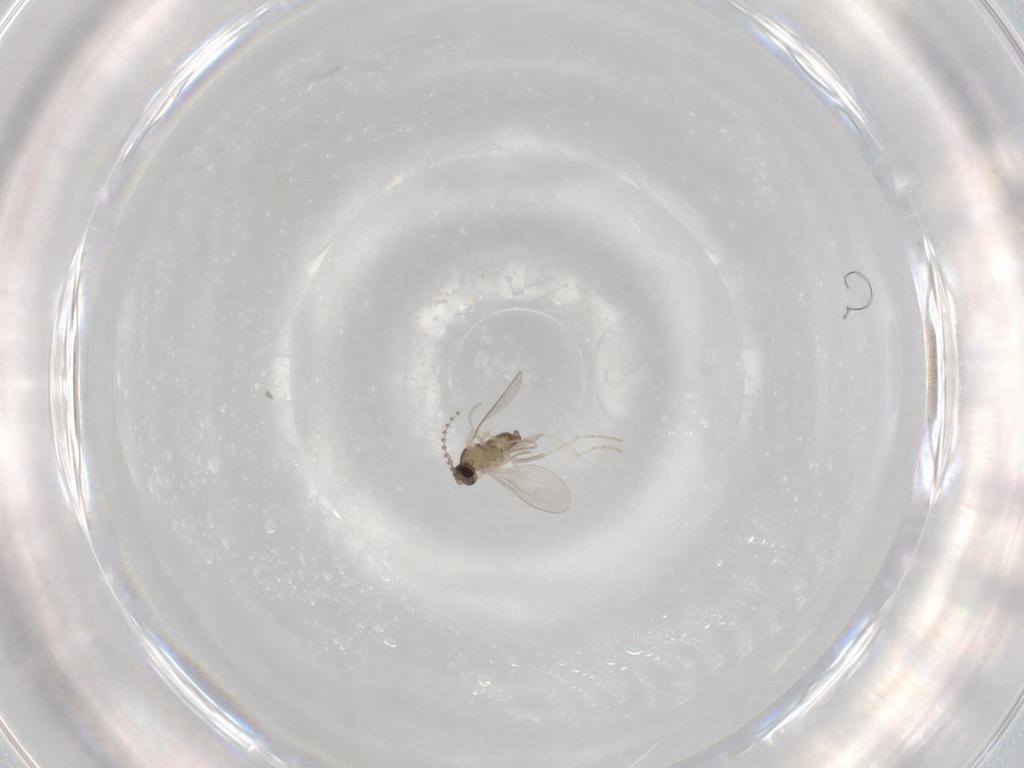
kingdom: Animalia
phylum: Arthropoda
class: Insecta
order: Diptera
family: Cecidomyiidae
